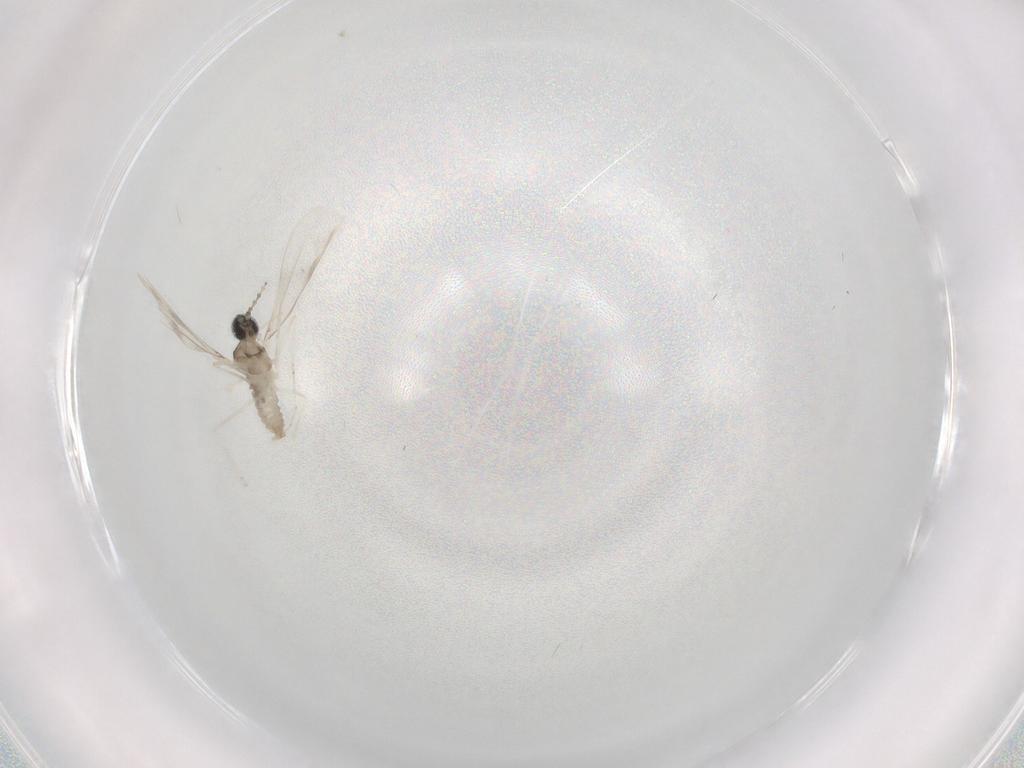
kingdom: Animalia
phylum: Arthropoda
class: Insecta
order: Diptera
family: Cecidomyiidae
